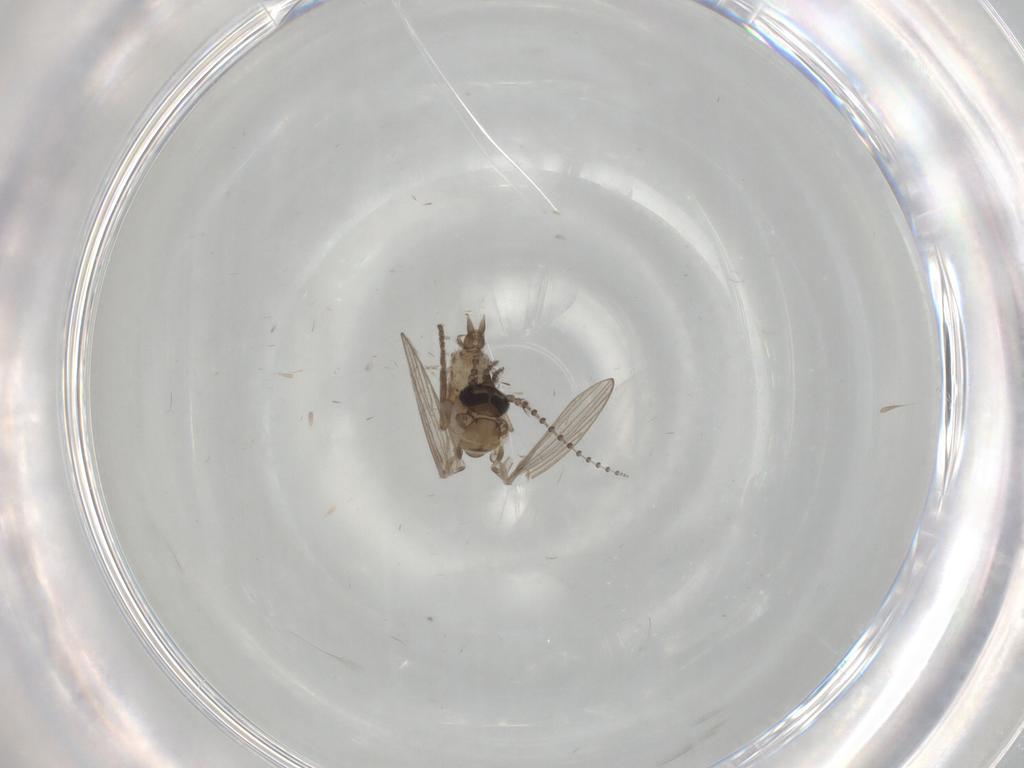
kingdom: Animalia
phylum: Arthropoda
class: Insecta
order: Diptera
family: Psychodidae
